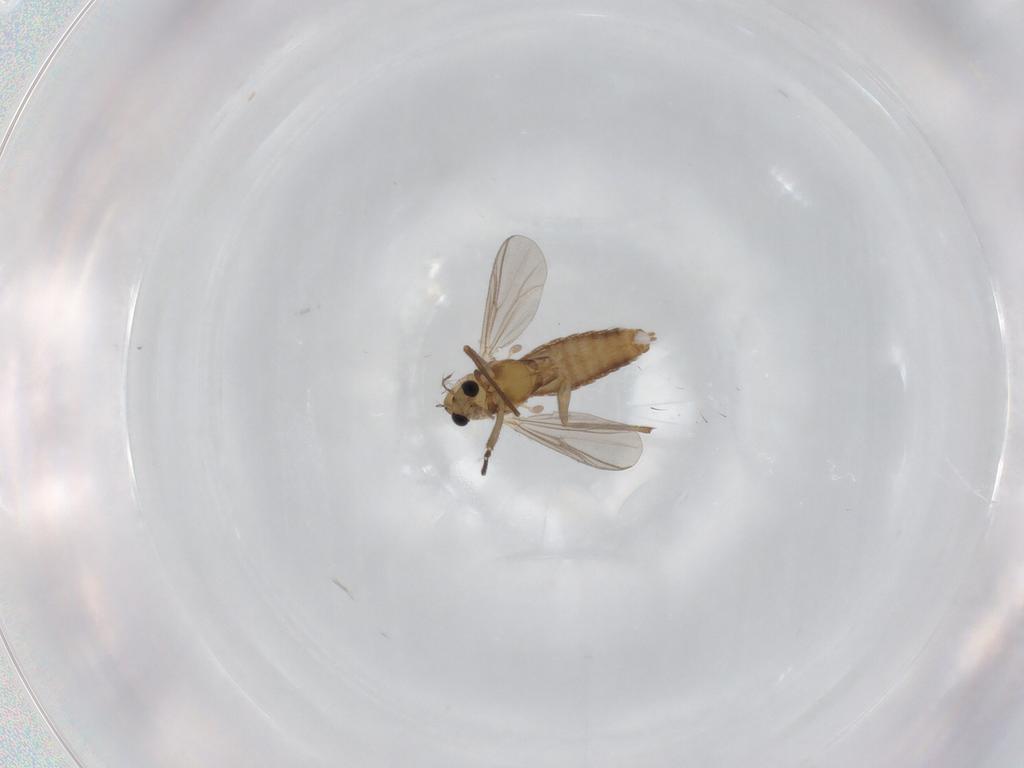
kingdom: Animalia
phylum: Arthropoda
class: Insecta
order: Diptera
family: Chironomidae
